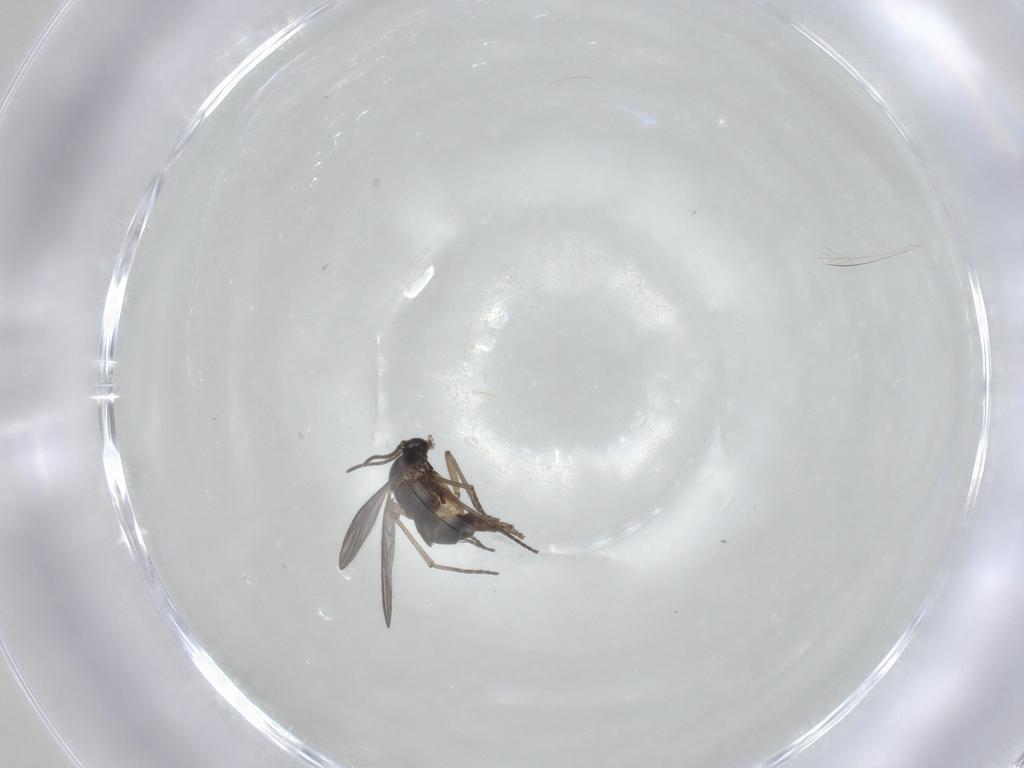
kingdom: Animalia
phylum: Arthropoda
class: Insecta
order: Diptera
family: Sciaridae
